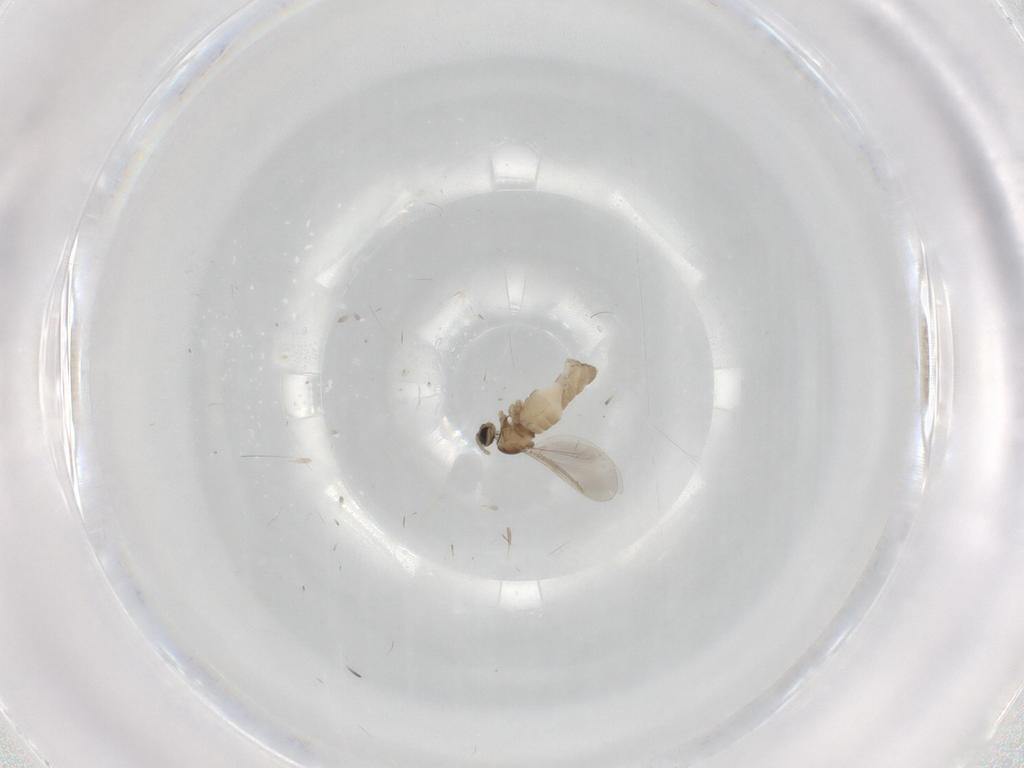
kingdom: Animalia
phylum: Arthropoda
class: Insecta
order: Diptera
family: Cecidomyiidae
